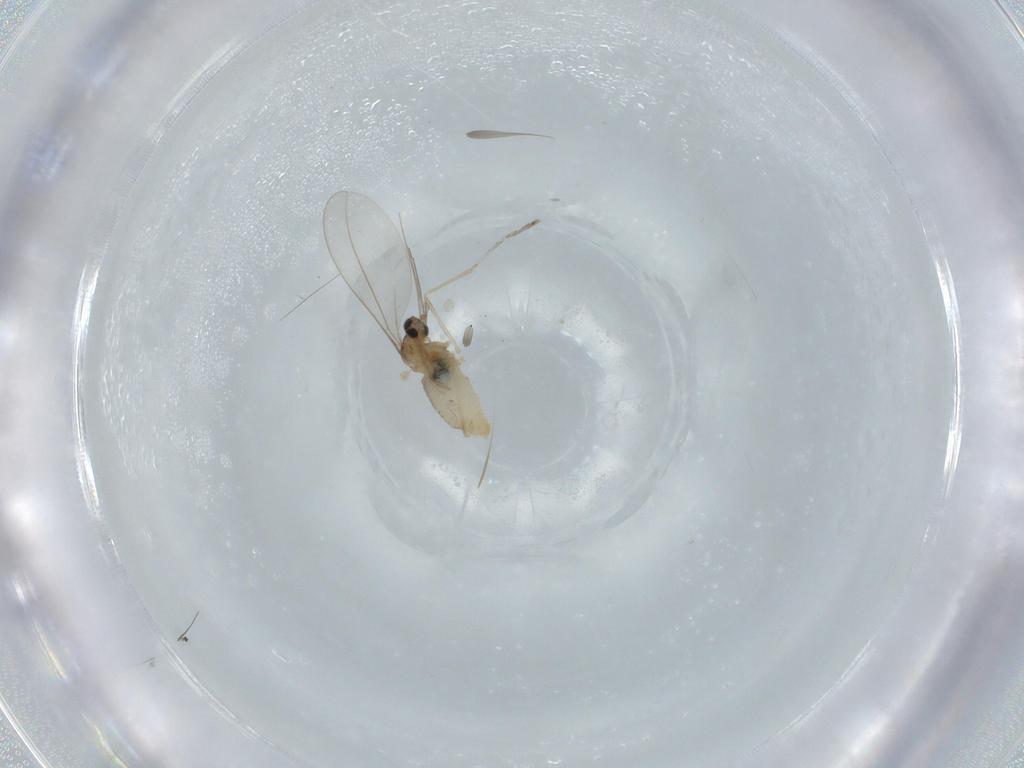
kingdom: Animalia
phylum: Arthropoda
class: Insecta
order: Diptera
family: Cecidomyiidae
